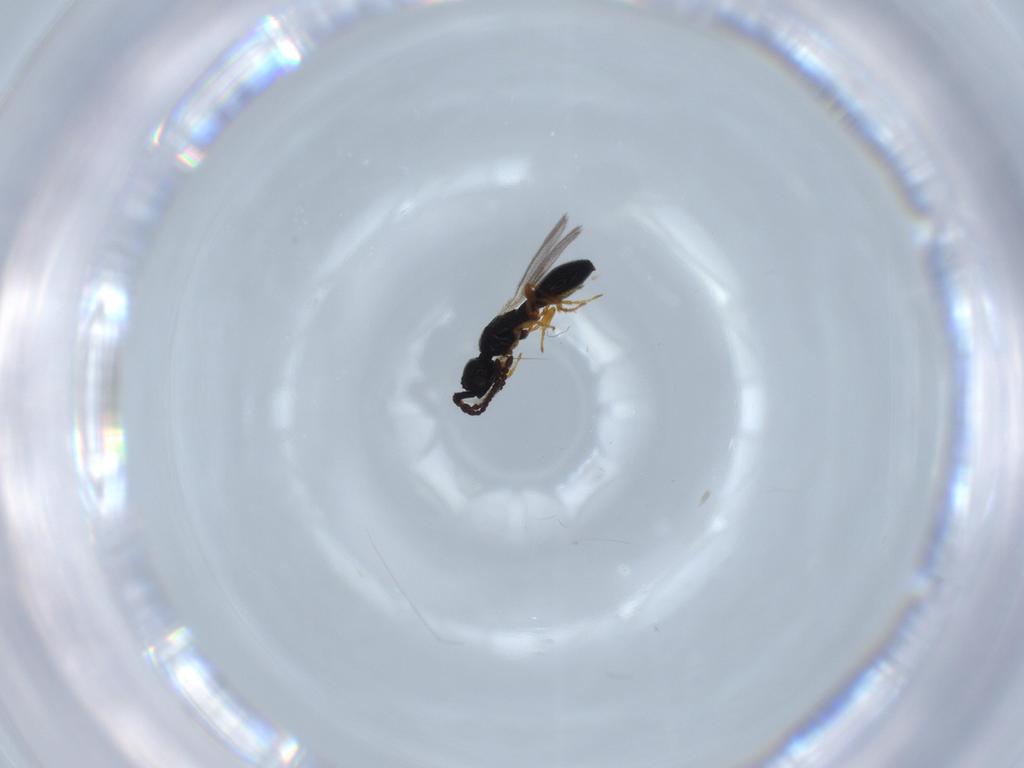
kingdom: Animalia
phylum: Arthropoda
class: Insecta
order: Hymenoptera
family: Diapriidae
